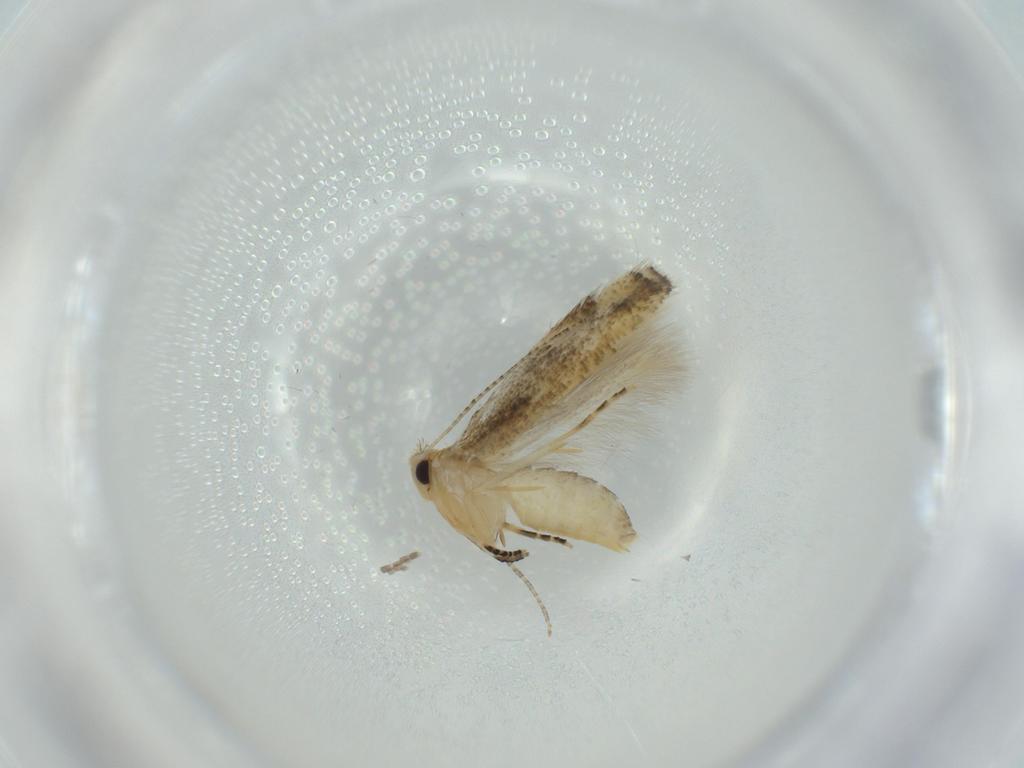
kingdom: Animalia
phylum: Arthropoda
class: Insecta
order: Lepidoptera
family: Bucculatricidae
